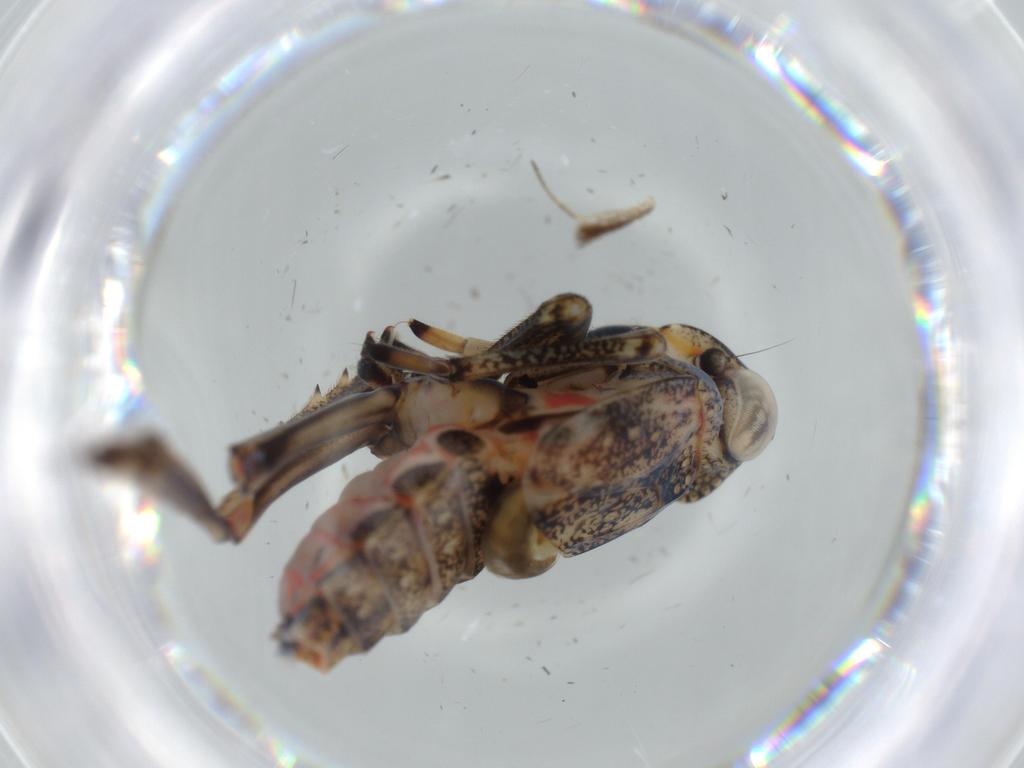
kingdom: Animalia
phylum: Arthropoda
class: Insecta
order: Hemiptera
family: Issidae
